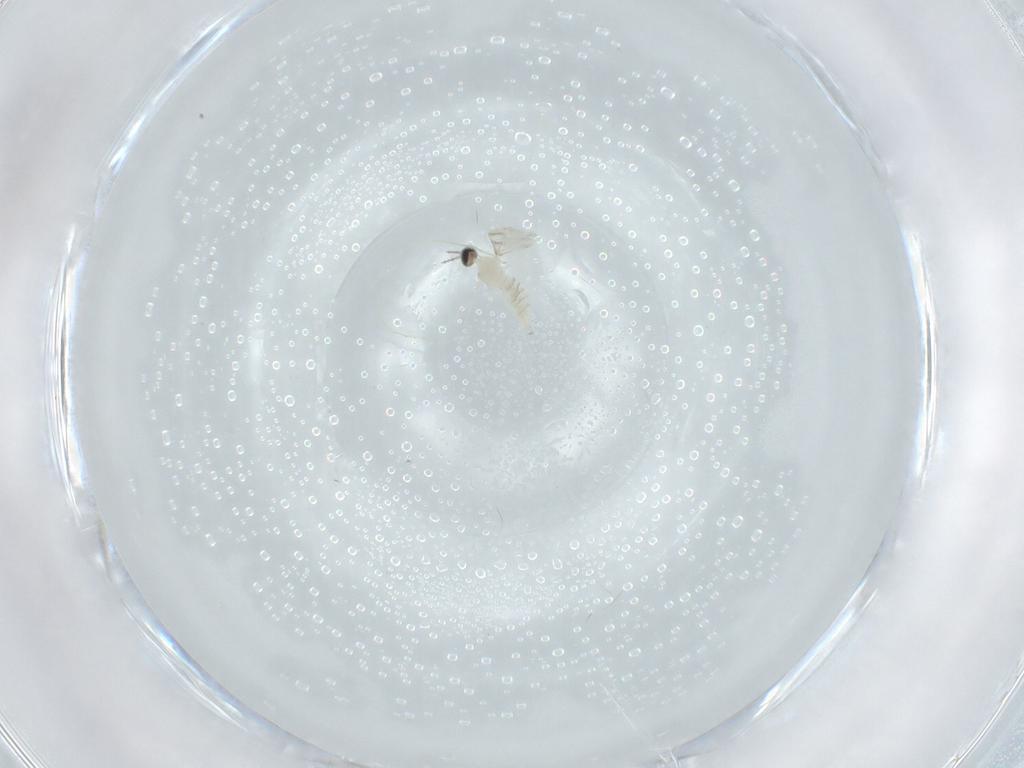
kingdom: Animalia
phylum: Arthropoda
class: Insecta
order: Diptera
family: Cecidomyiidae
